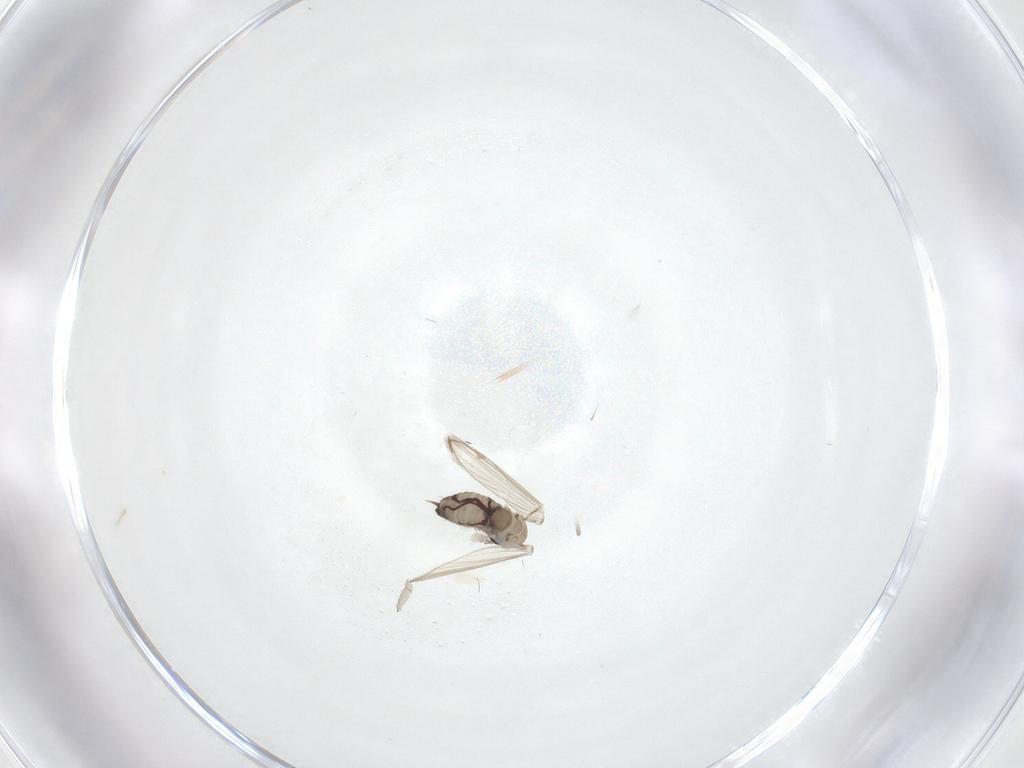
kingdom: Animalia
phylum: Arthropoda
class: Insecta
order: Diptera
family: Psychodidae
